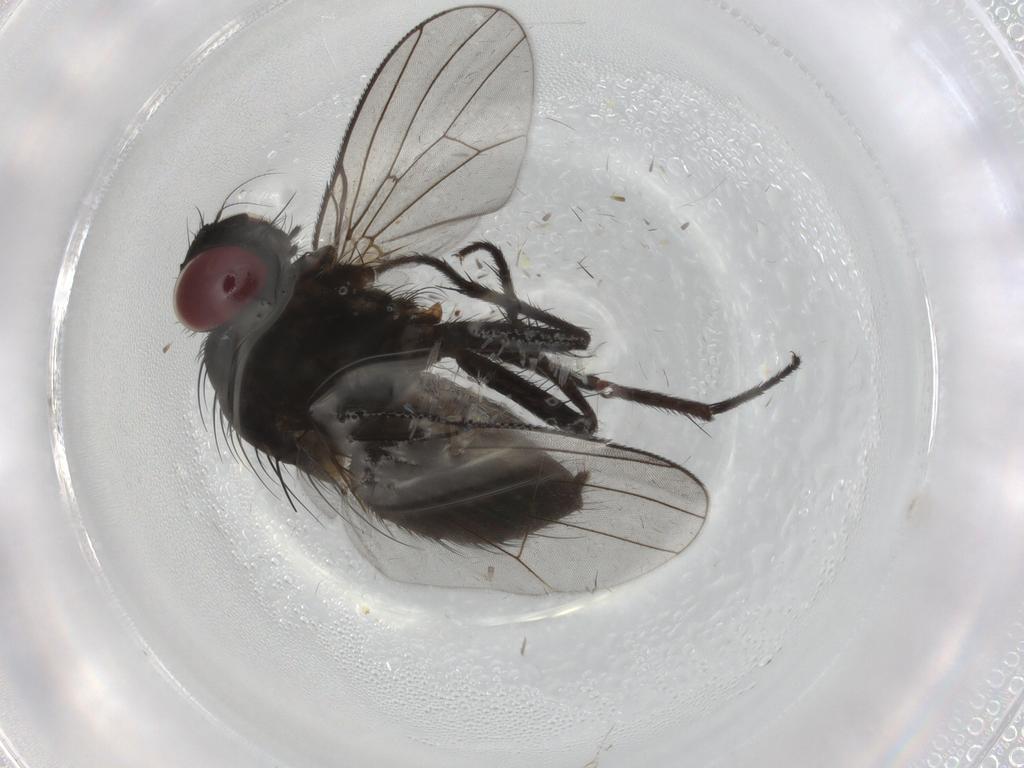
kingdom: Animalia
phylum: Arthropoda
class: Insecta
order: Diptera
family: Muscidae
